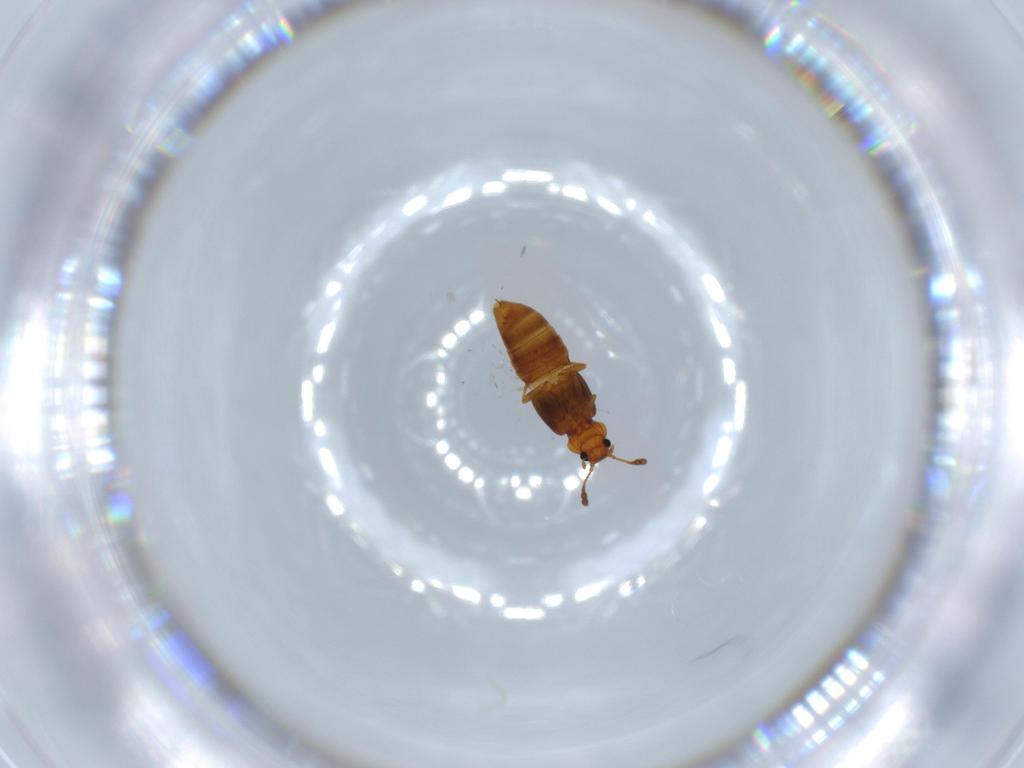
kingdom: Animalia
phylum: Arthropoda
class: Insecta
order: Coleoptera
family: Staphylinidae
